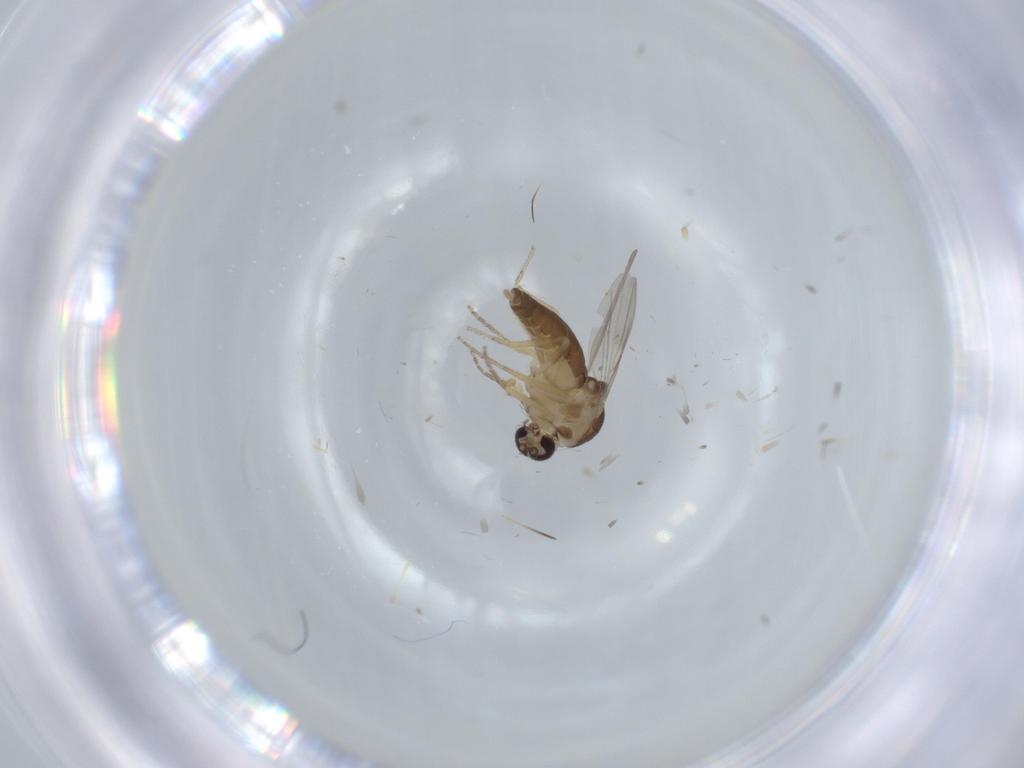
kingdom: Animalia
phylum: Arthropoda
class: Insecta
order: Diptera
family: Ceratopogonidae
